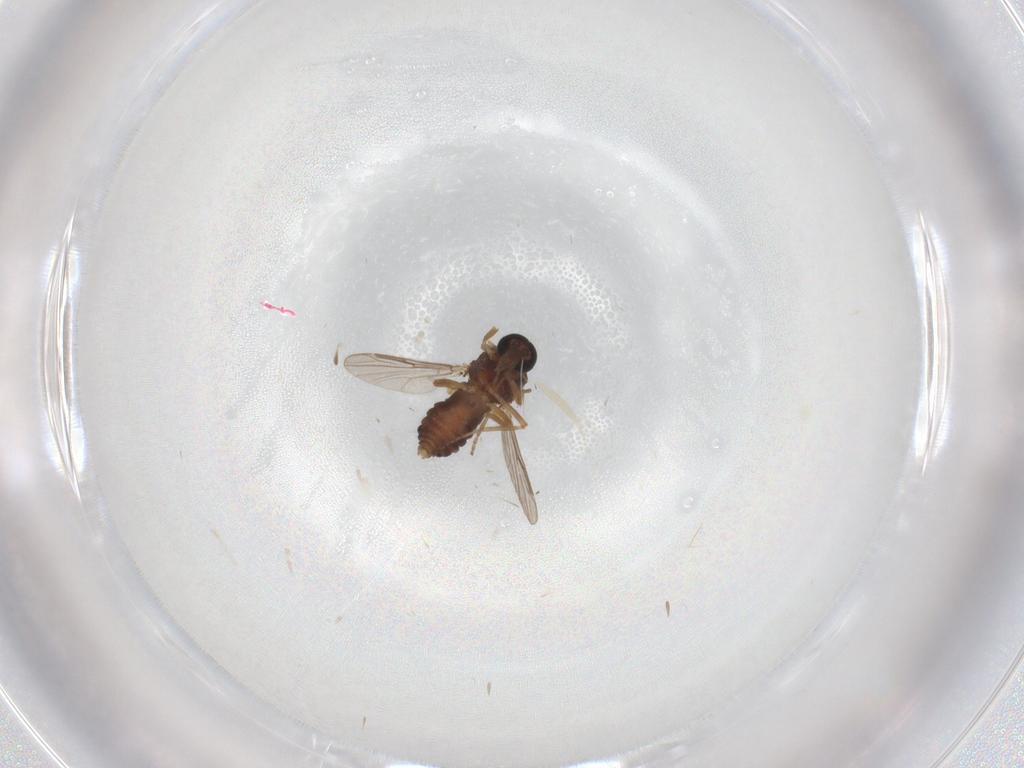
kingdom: Animalia
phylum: Arthropoda
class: Insecta
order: Diptera
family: Ceratopogonidae
